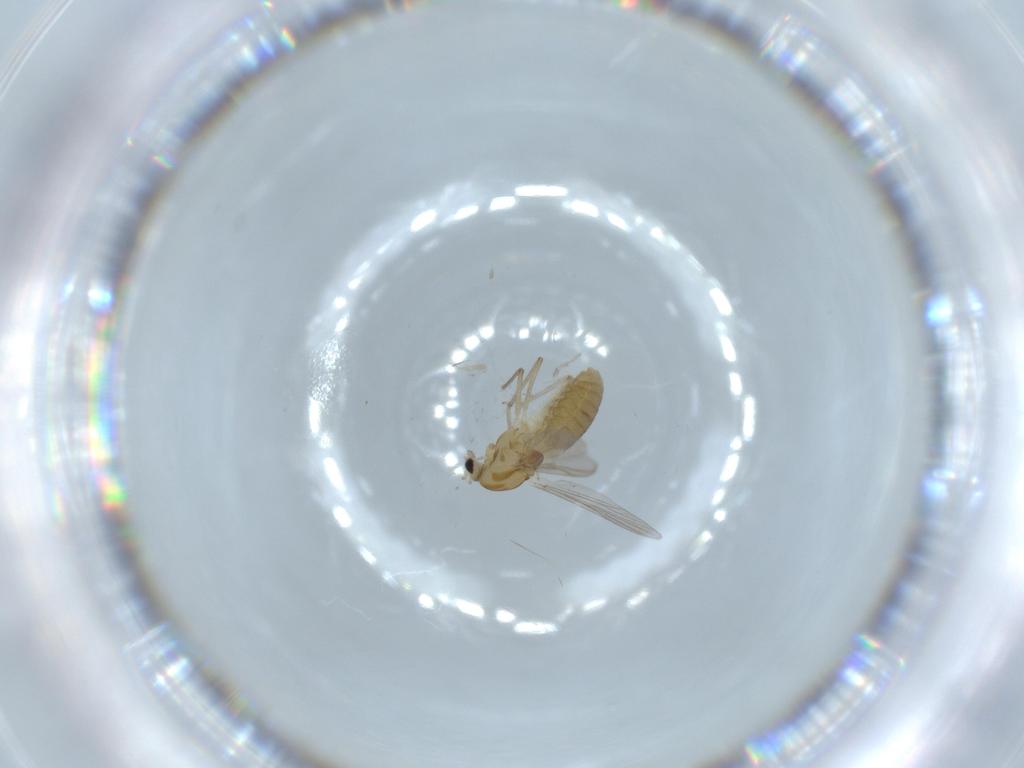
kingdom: Animalia
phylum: Arthropoda
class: Insecta
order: Diptera
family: Chironomidae
